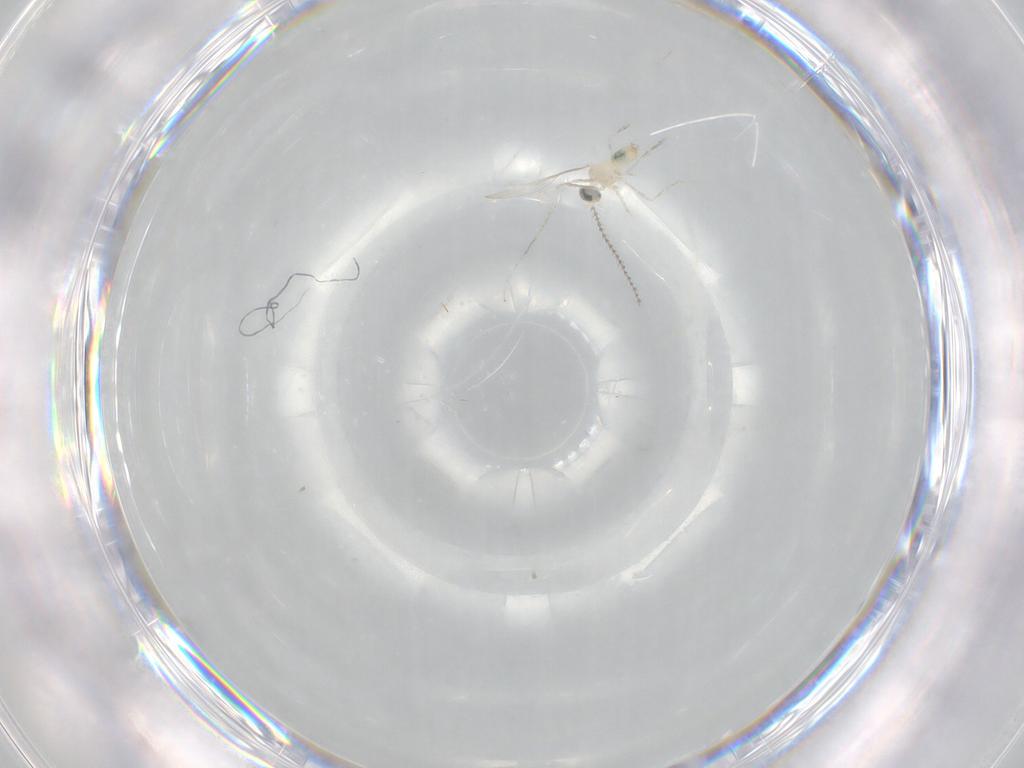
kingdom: Animalia
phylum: Arthropoda
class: Insecta
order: Diptera
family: Cecidomyiidae
